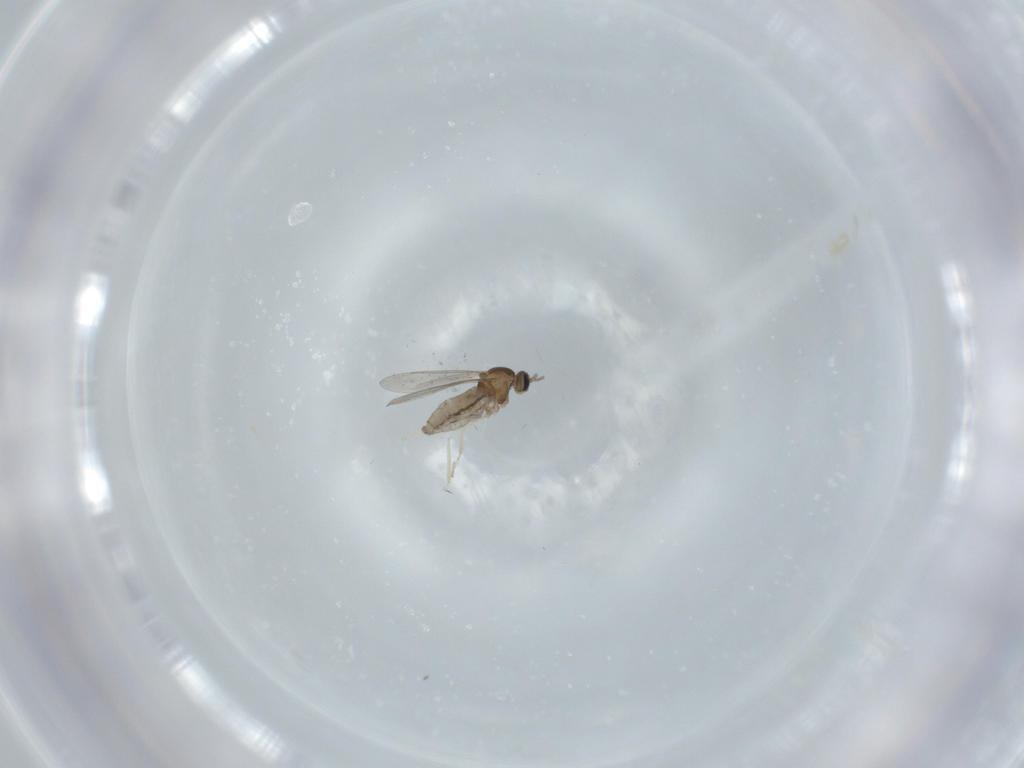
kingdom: Animalia
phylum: Arthropoda
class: Insecta
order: Diptera
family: Cecidomyiidae
